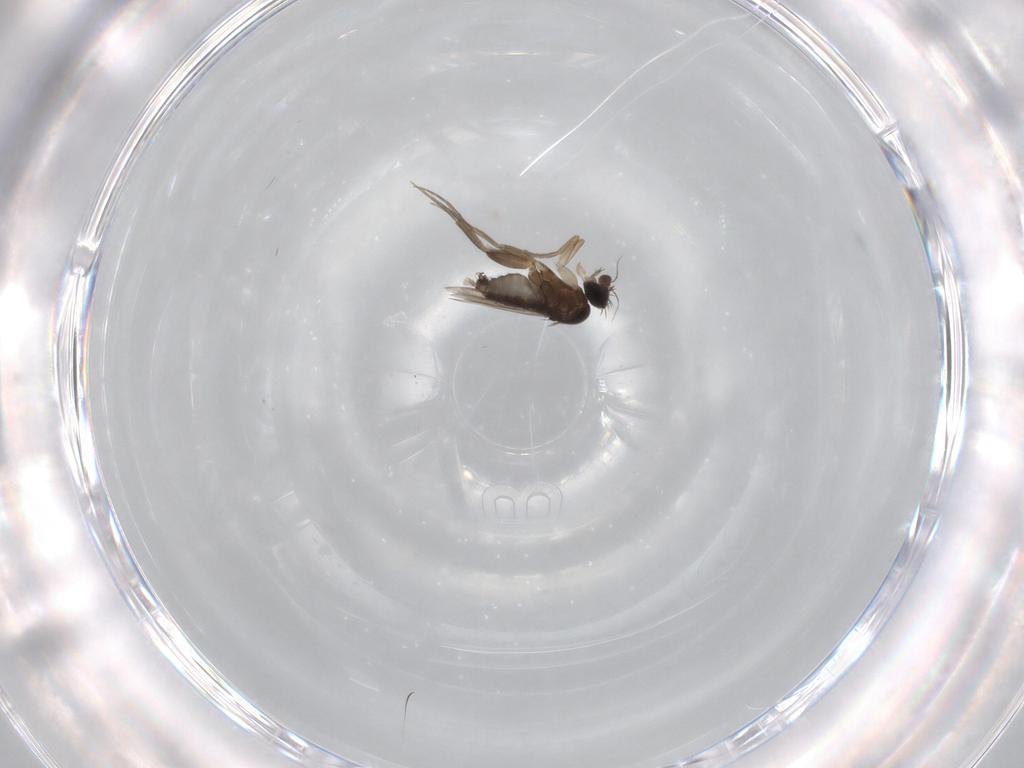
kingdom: Animalia
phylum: Arthropoda
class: Insecta
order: Diptera
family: Phoridae
